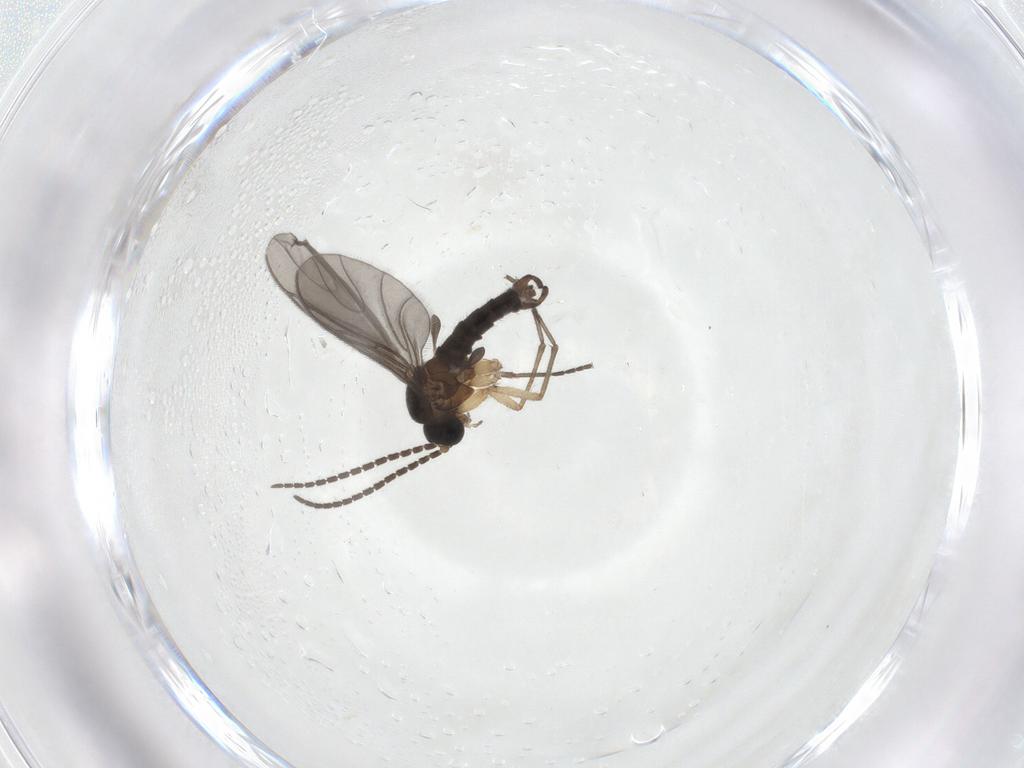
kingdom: Animalia
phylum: Arthropoda
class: Insecta
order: Diptera
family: Sciaridae
